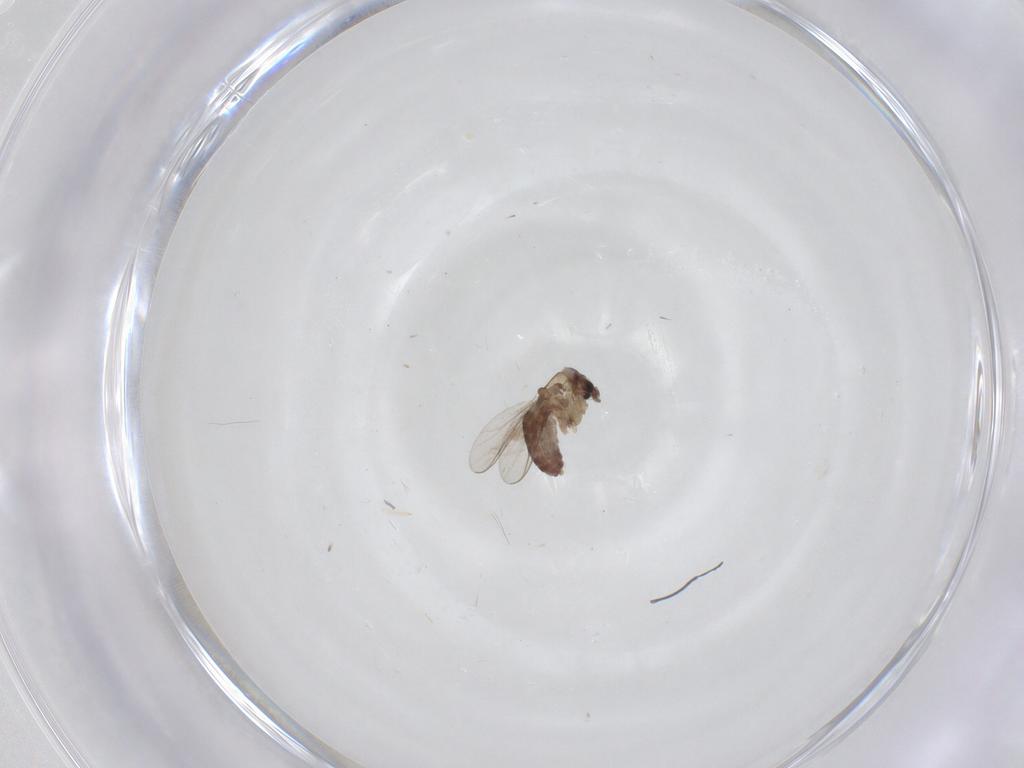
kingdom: Animalia
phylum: Arthropoda
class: Insecta
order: Diptera
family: Chironomidae
